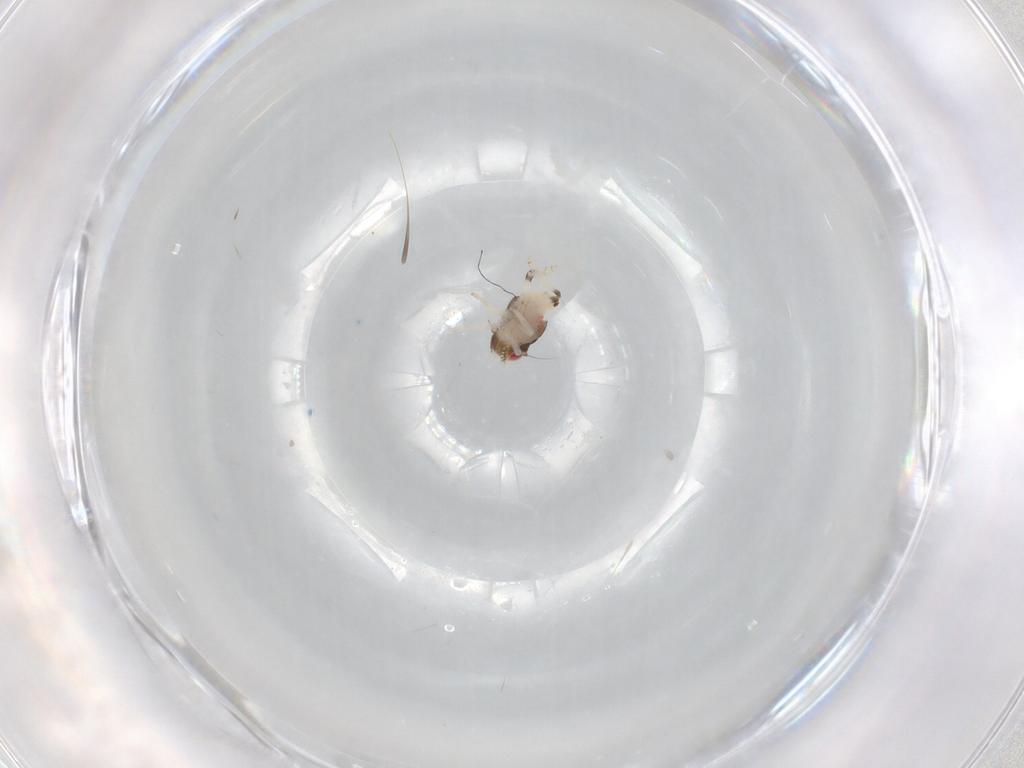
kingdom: Animalia
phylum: Arthropoda
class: Insecta
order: Hemiptera
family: Nogodinidae
